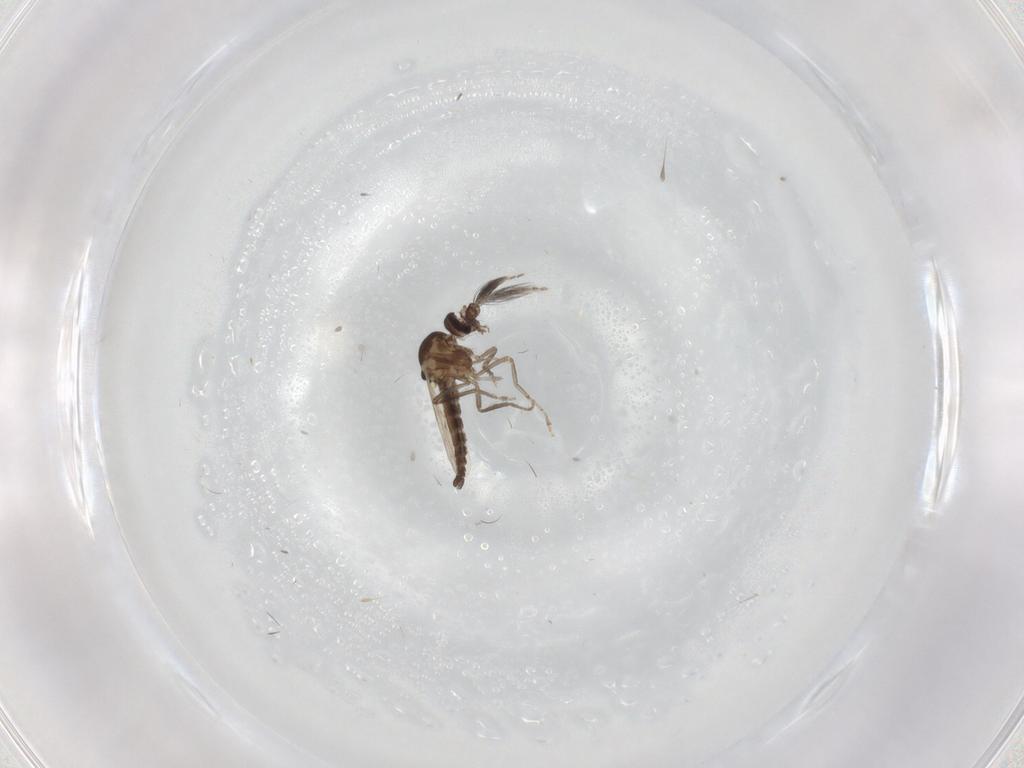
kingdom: Animalia
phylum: Arthropoda
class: Insecta
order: Diptera
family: Ceratopogonidae
